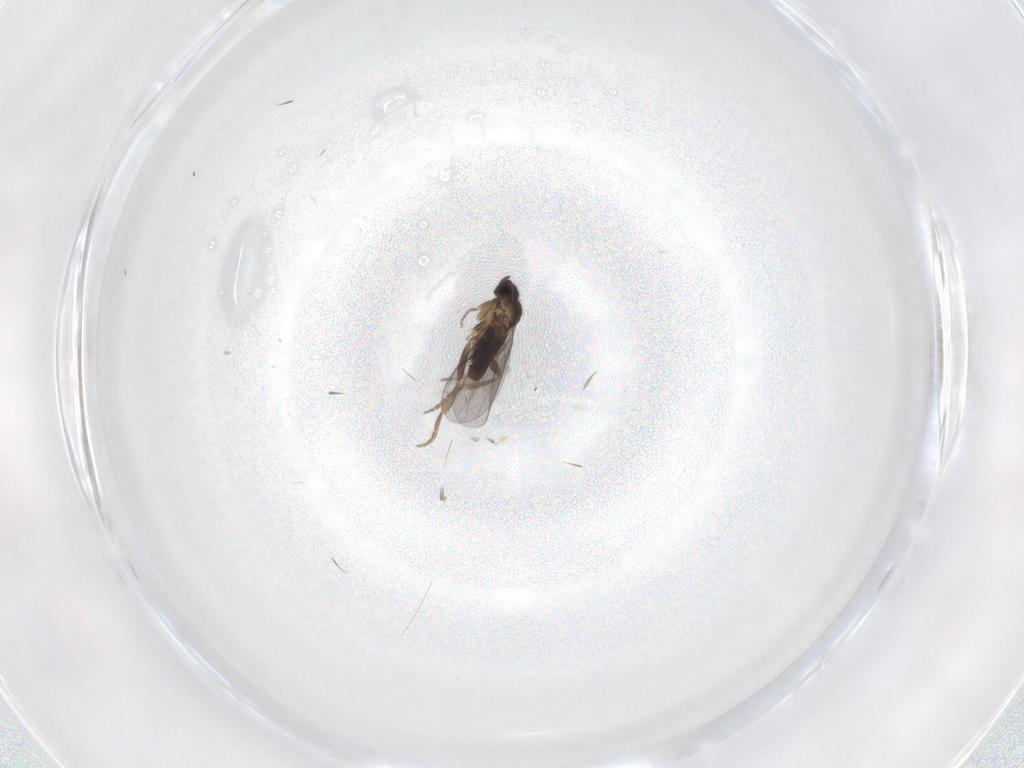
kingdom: Animalia
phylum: Arthropoda
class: Insecta
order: Diptera
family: Cecidomyiidae
